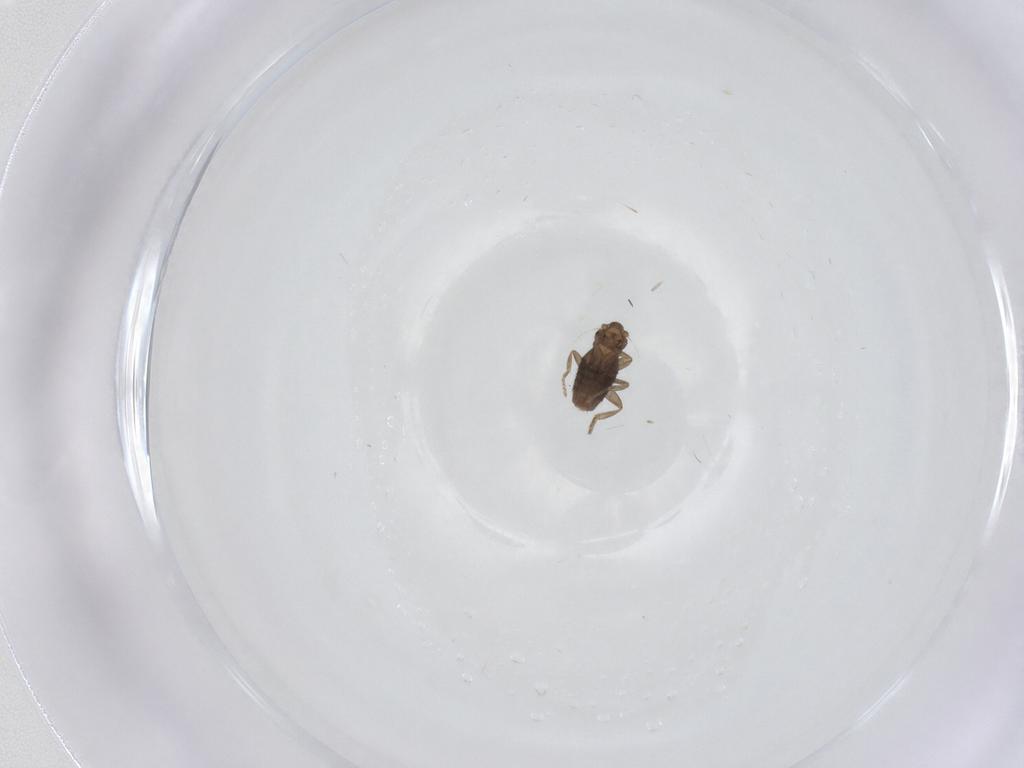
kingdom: Animalia
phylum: Arthropoda
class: Insecta
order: Diptera
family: Phoridae
